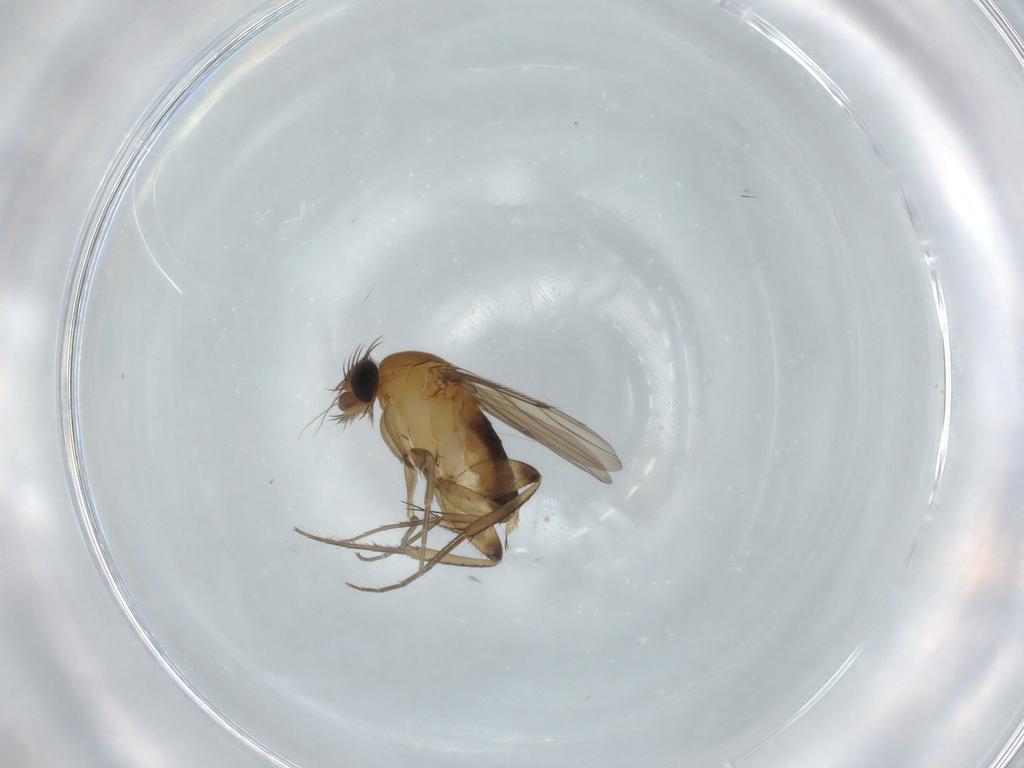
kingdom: Animalia
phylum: Arthropoda
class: Insecta
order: Diptera
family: Phoridae
